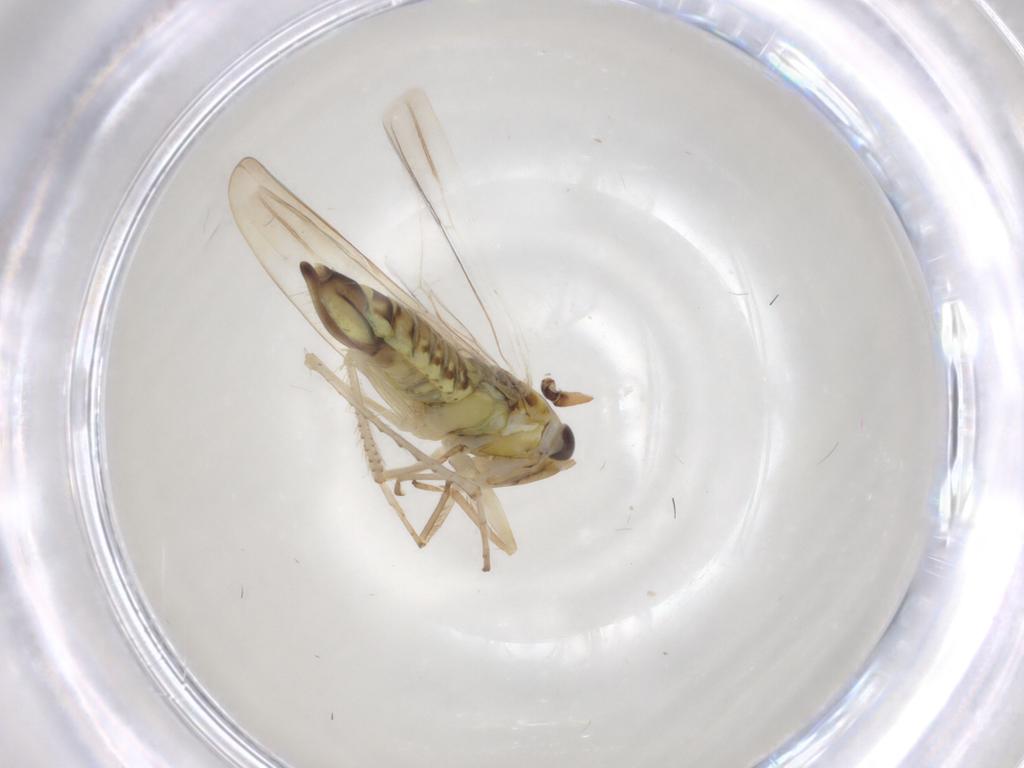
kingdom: Animalia
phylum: Arthropoda
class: Insecta
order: Hemiptera
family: Cicadellidae
